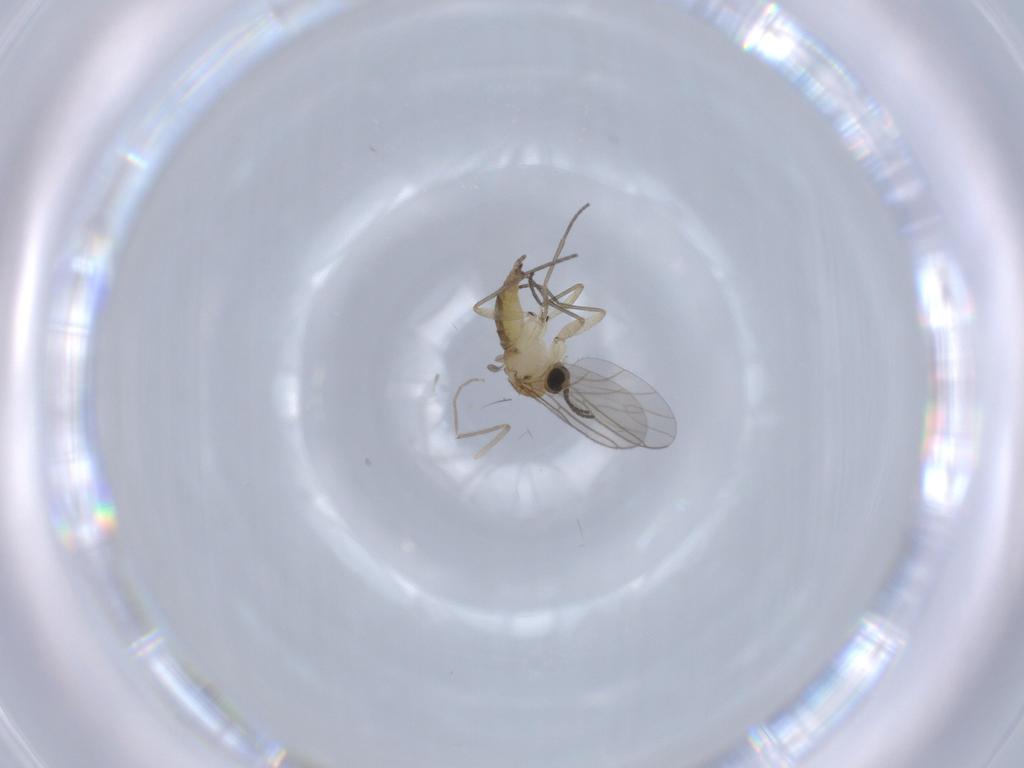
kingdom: Animalia
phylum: Arthropoda
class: Insecta
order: Diptera
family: Sciaridae
